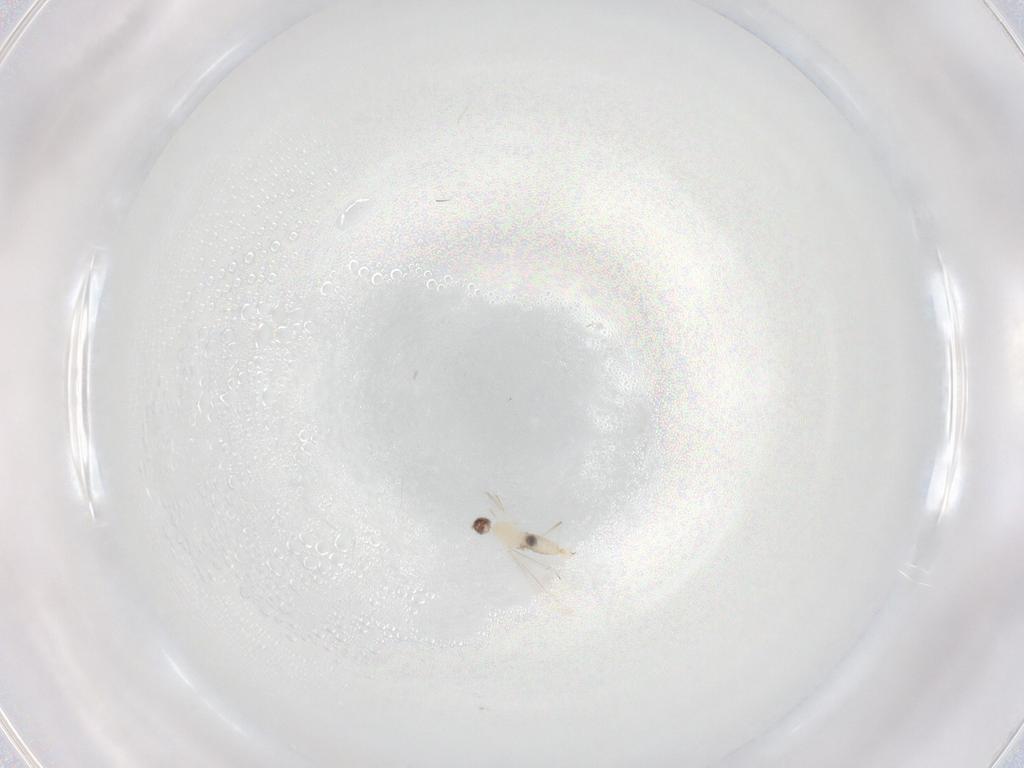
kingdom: Animalia
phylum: Arthropoda
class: Insecta
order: Diptera
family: Cecidomyiidae
